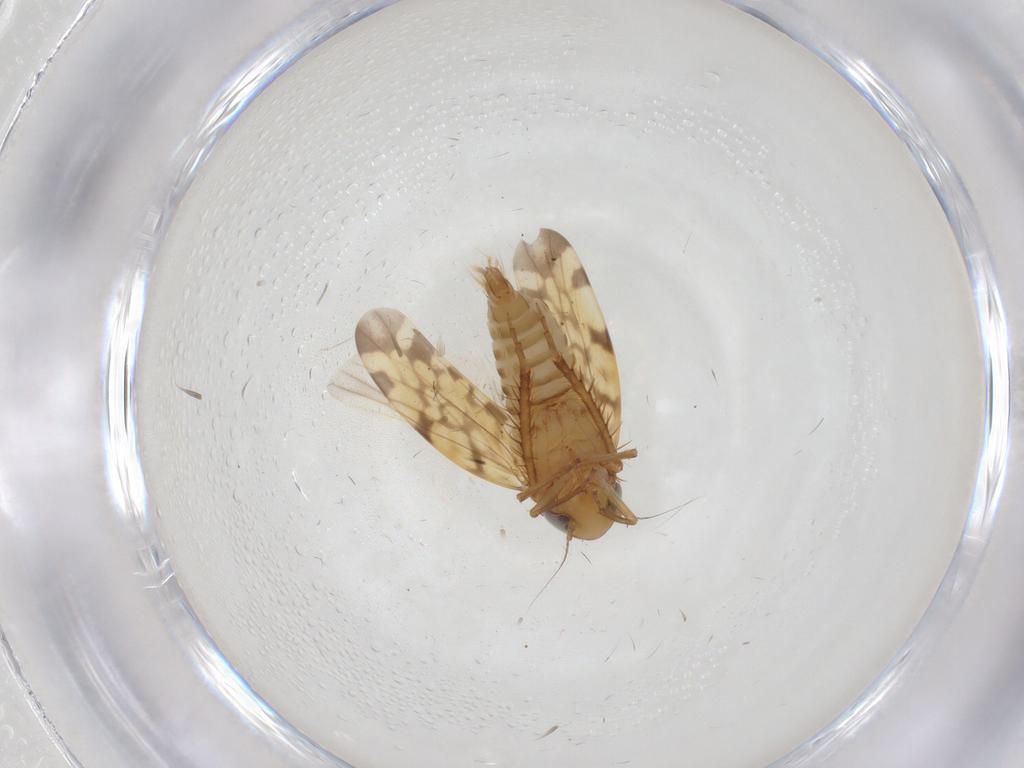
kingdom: Animalia
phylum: Arthropoda
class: Insecta
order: Hemiptera
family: Cicadellidae
